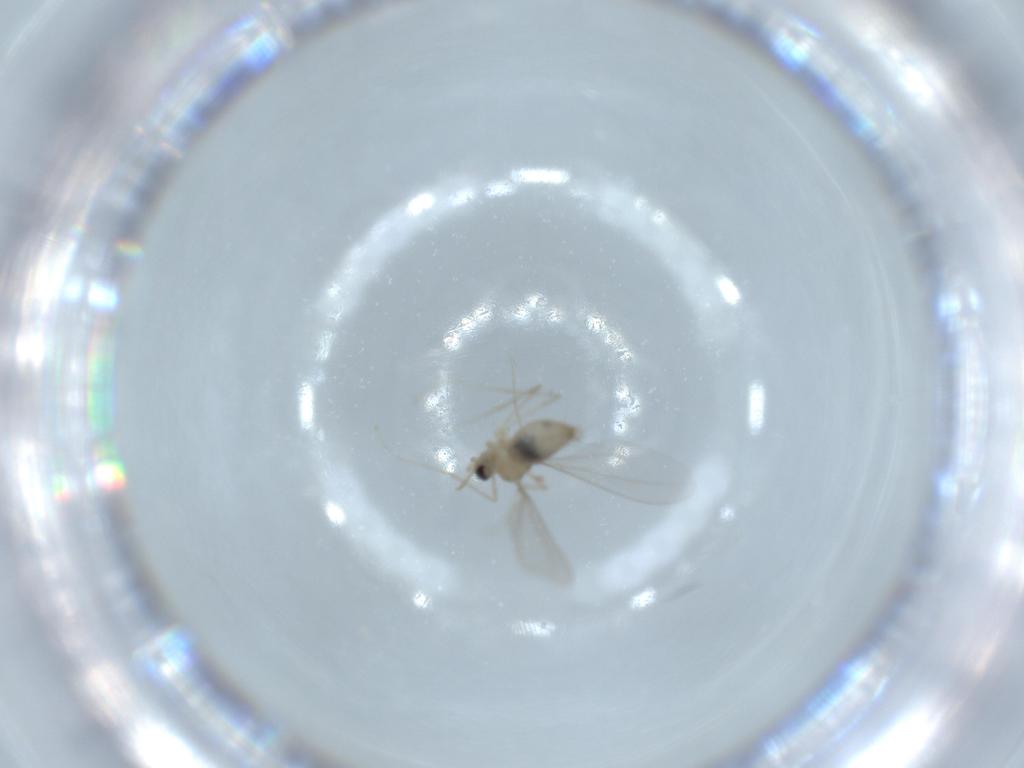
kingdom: Animalia
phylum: Arthropoda
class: Insecta
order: Diptera
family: Cecidomyiidae
